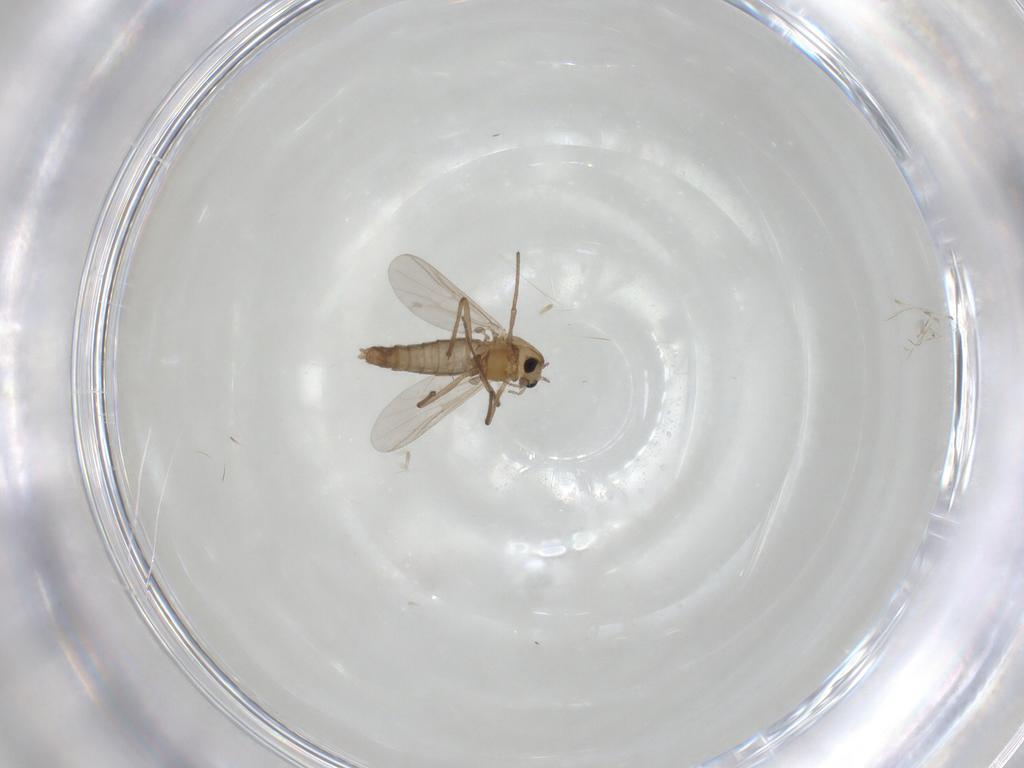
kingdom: Animalia
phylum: Arthropoda
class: Insecta
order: Diptera
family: Chironomidae
